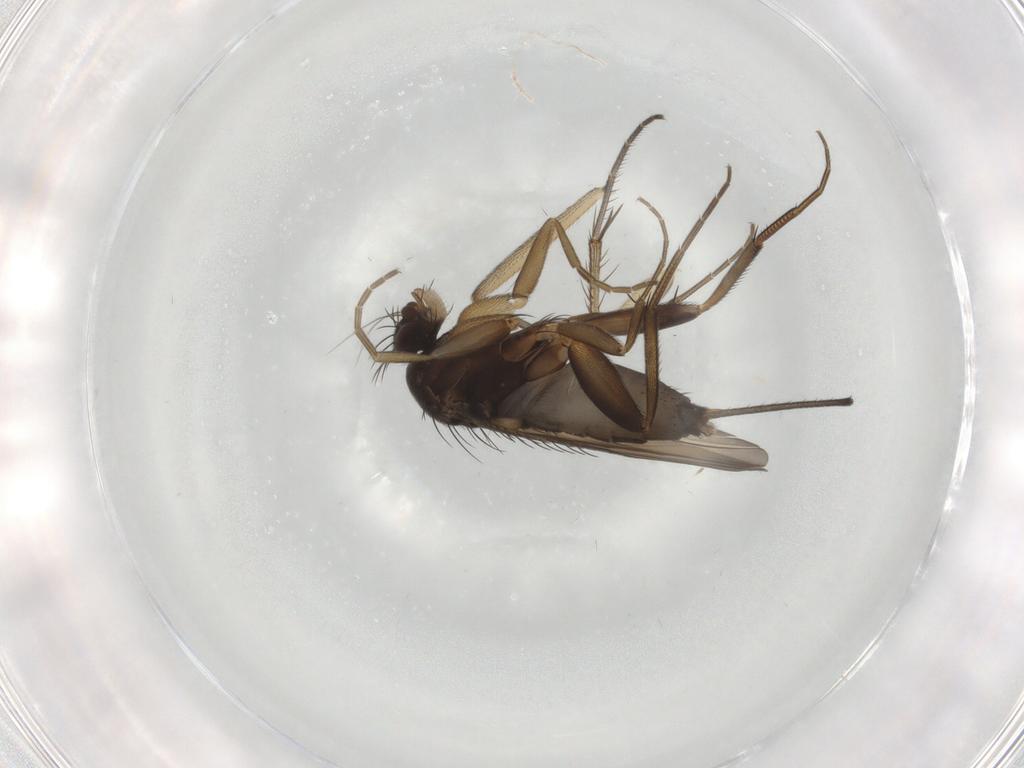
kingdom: Animalia
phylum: Arthropoda
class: Insecta
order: Diptera
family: Phoridae
